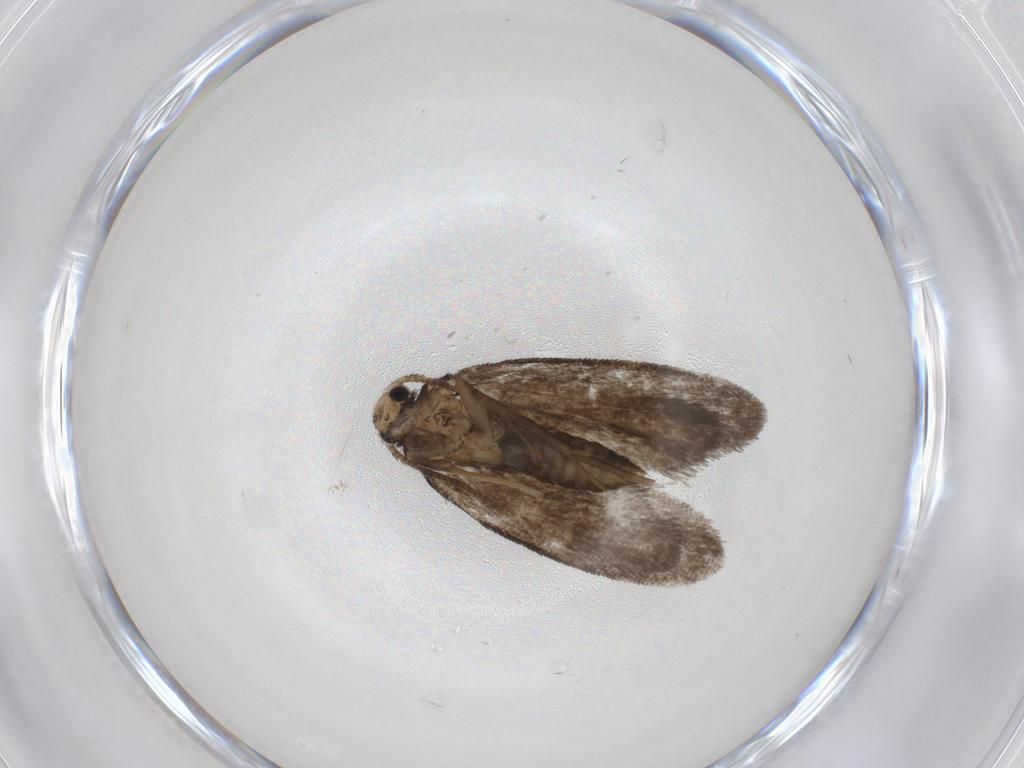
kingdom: Animalia
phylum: Arthropoda
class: Insecta
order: Lepidoptera
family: Psychidae
